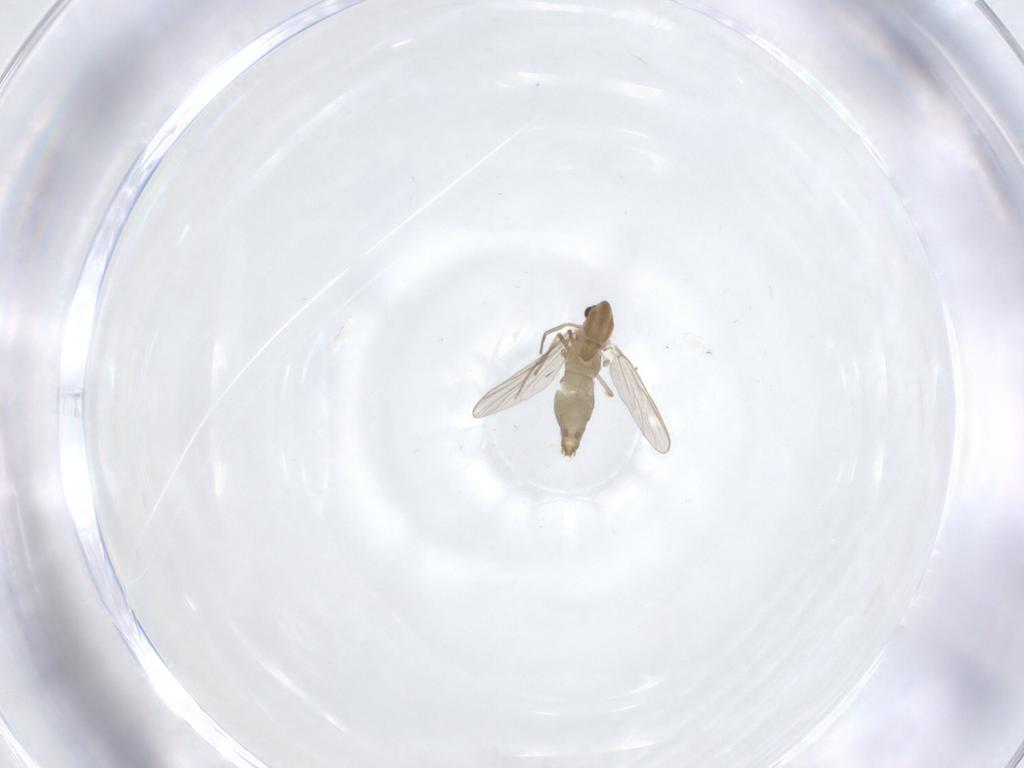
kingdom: Animalia
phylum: Arthropoda
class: Insecta
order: Diptera
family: Chironomidae
